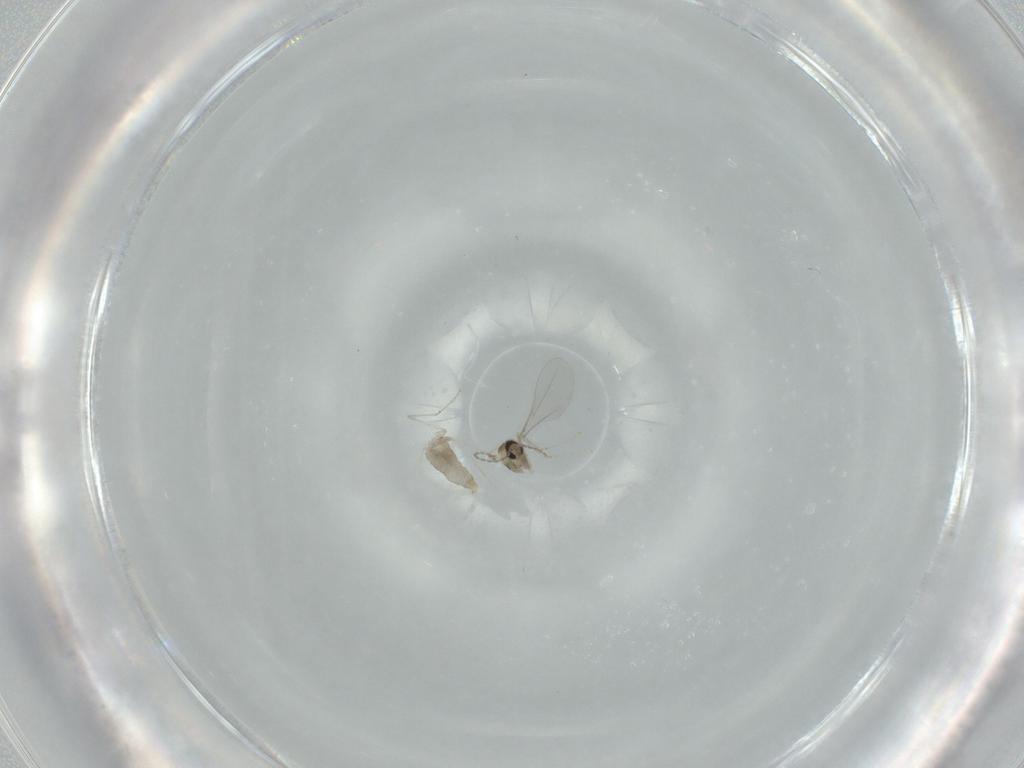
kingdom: Animalia
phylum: Arthropoda
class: Insecta
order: Diptera
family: Cecidomyiidae
